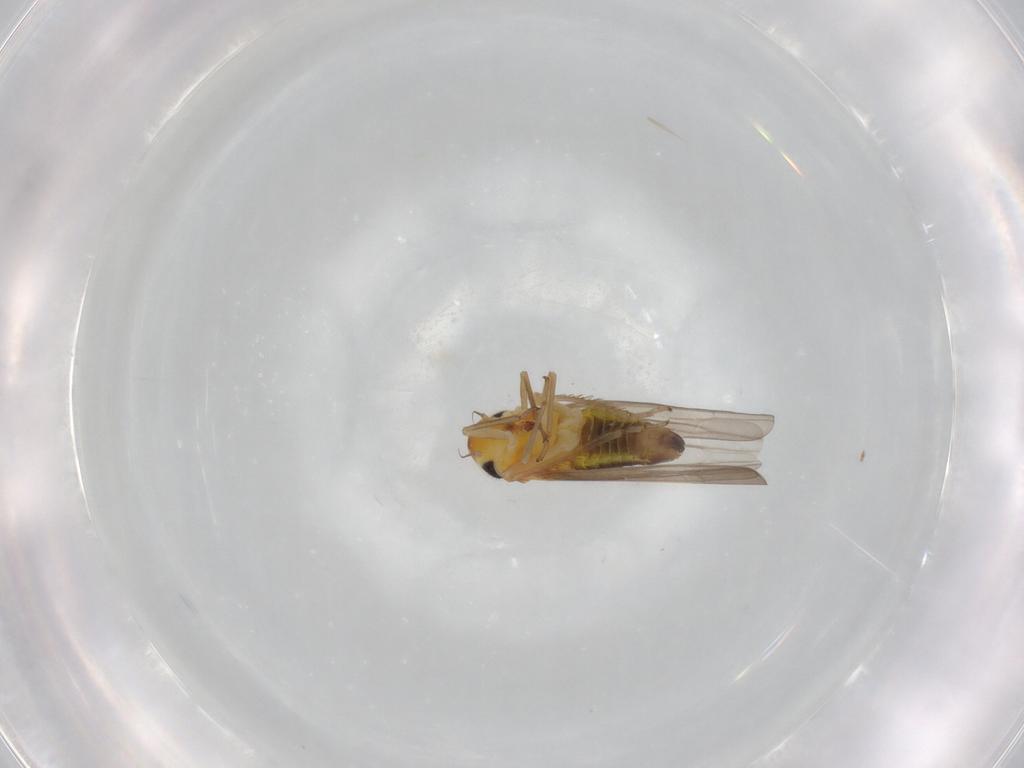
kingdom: Animalia
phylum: Arthropoda
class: Insecta
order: Hemiptera
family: Cicadellidae
